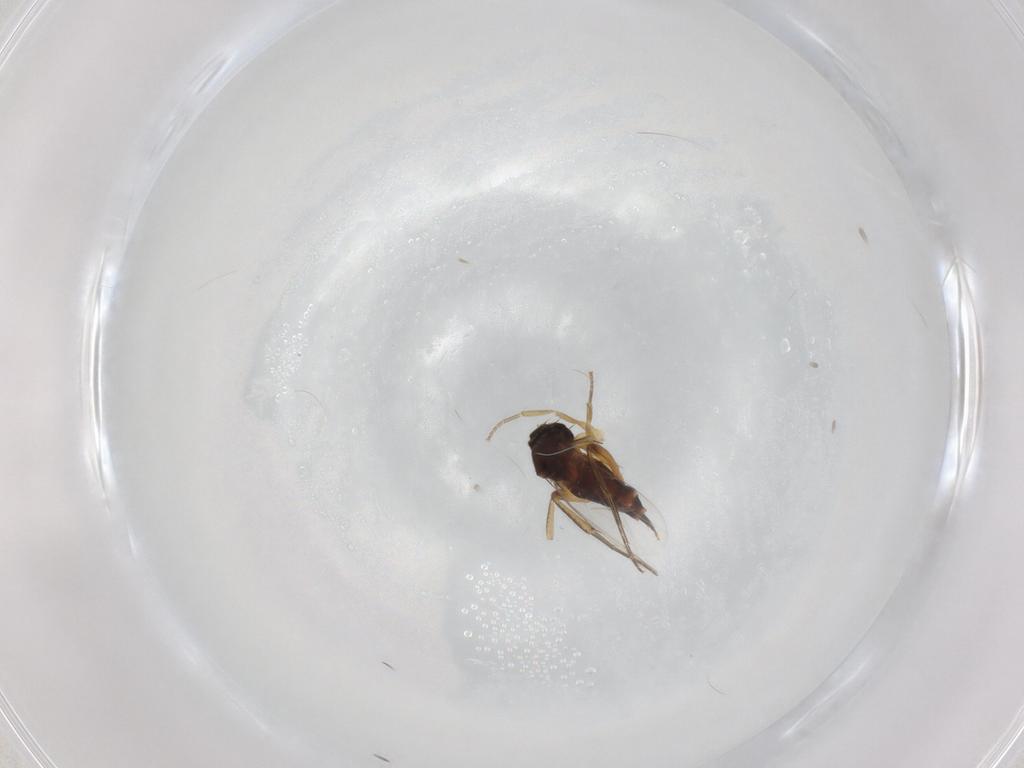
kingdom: Animalia
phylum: Arthropoda
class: Insecta
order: Diptera
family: Phoridae
